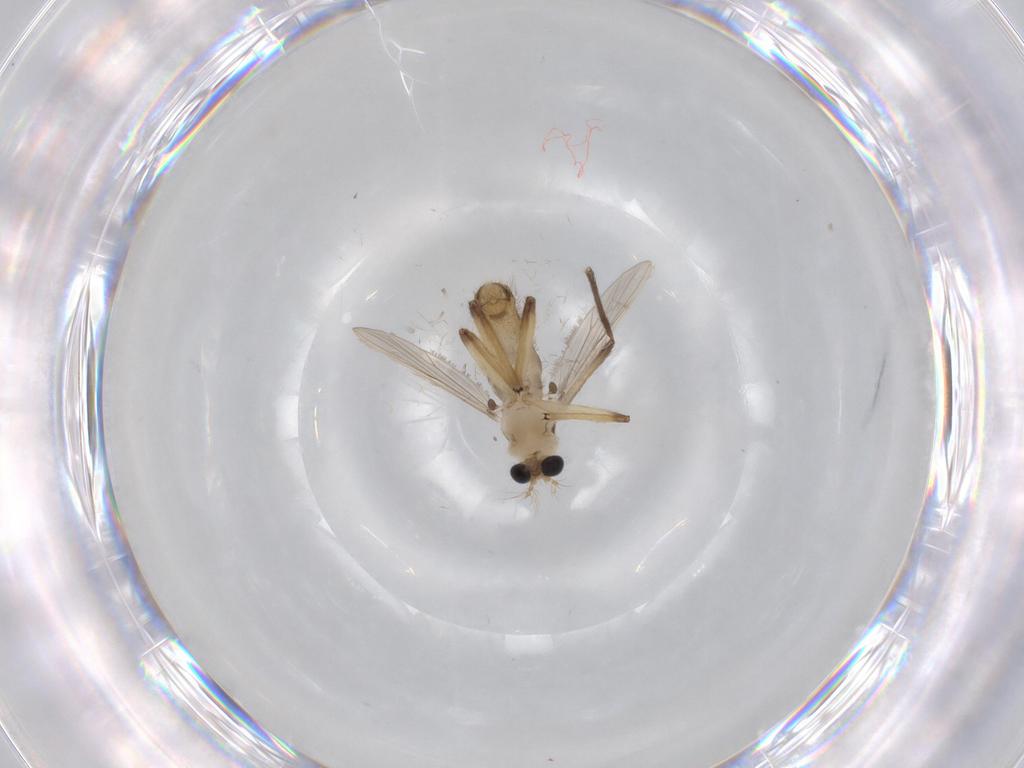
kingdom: Animalia
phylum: Arthropoda
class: Insecta
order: Diptera
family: Chironomidae
